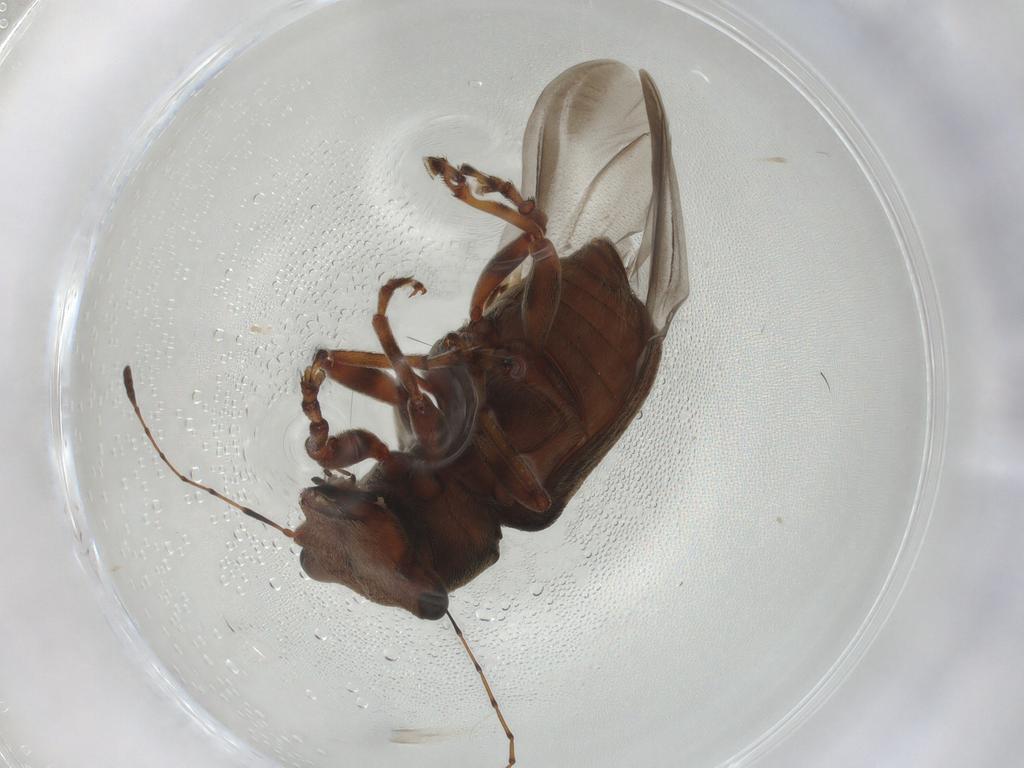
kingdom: Animalia
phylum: Arthropoda
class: Insecta
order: Coleoptera
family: Anthribidae
